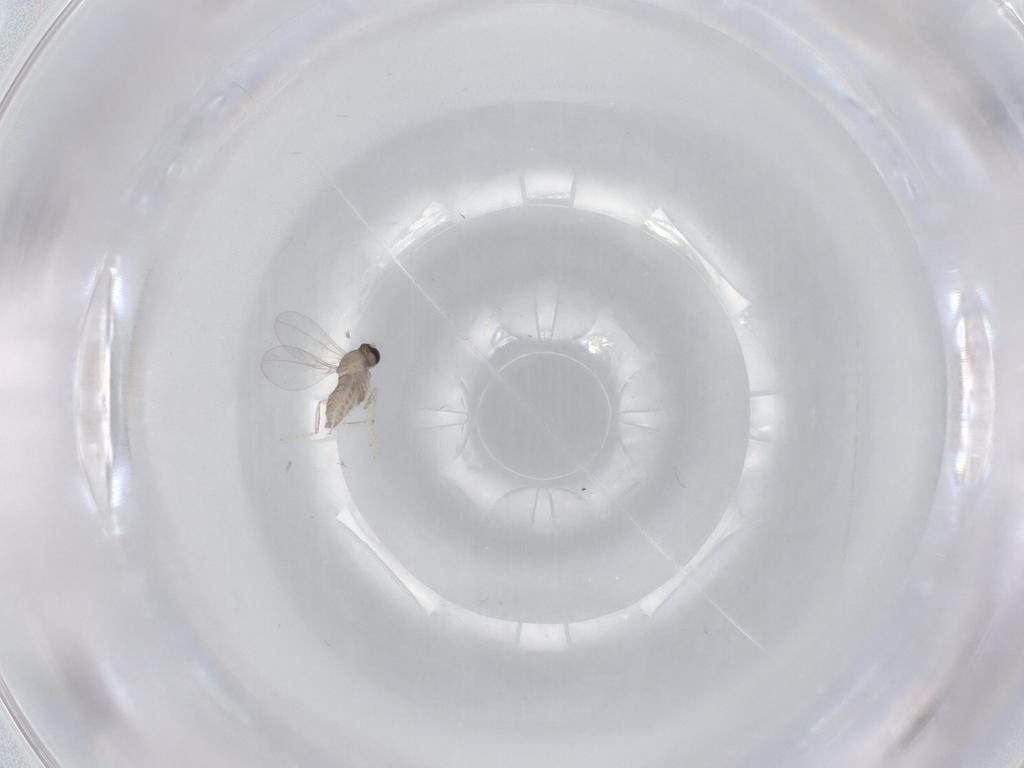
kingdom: Animalia
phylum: Arthropoda
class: Insecta
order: Diptera
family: Cecidomyiidae
